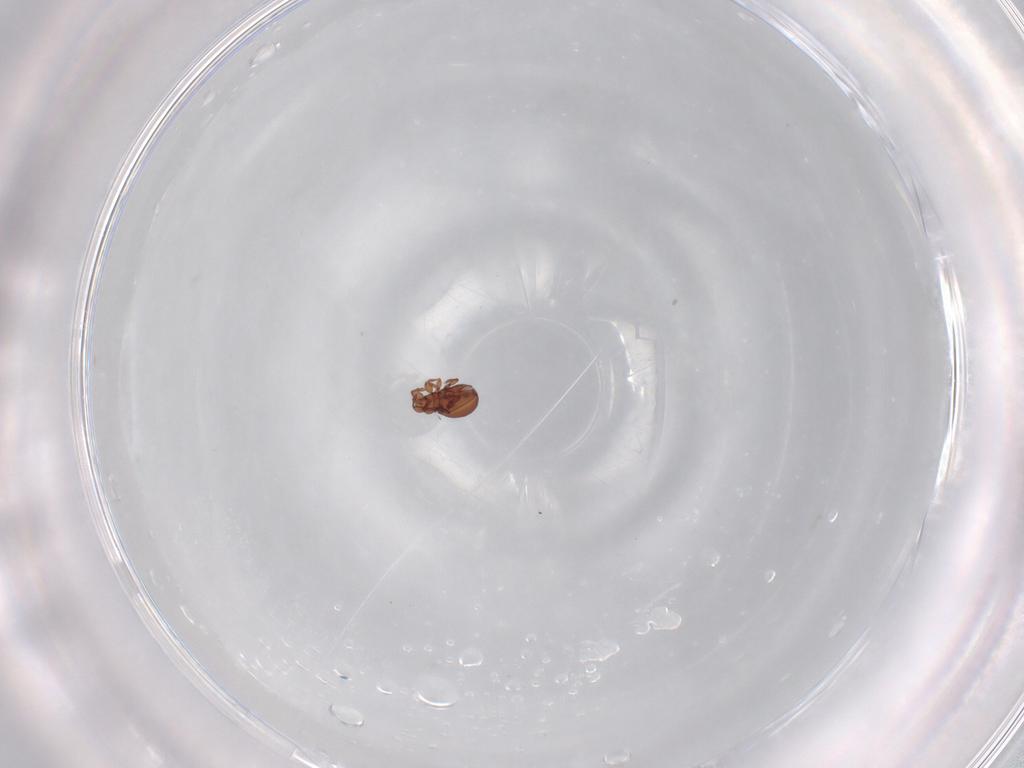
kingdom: Animalia
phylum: Arthropoda
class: Arachnida
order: Sarcoptiformes
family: Eremaeidae
